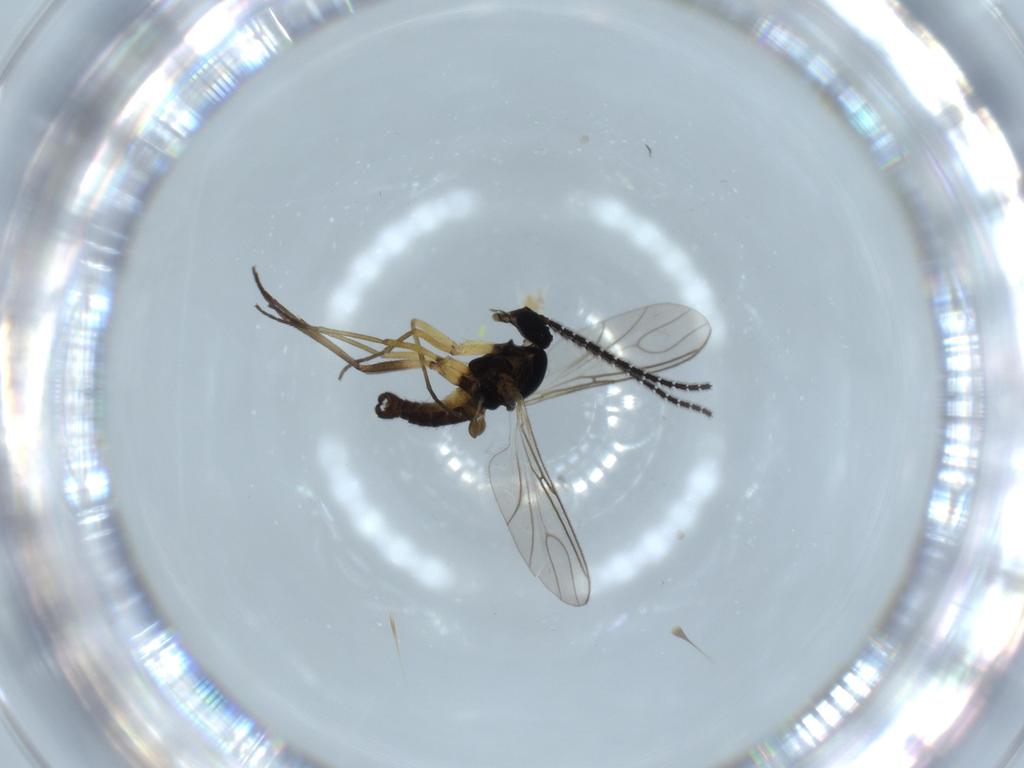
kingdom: Animalia
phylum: Arthropoda
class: Insecta
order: Diptera
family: Sciaridae
